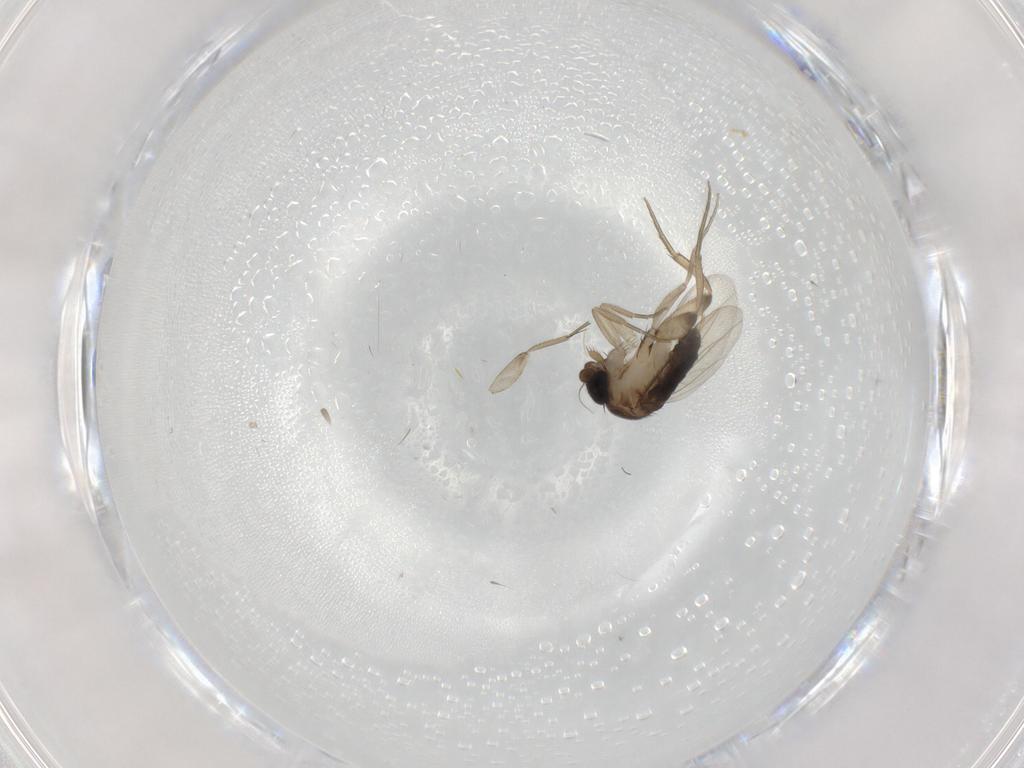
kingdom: Animalia
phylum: Arthropoda
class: Insecta
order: Diptera
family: Phoridae
